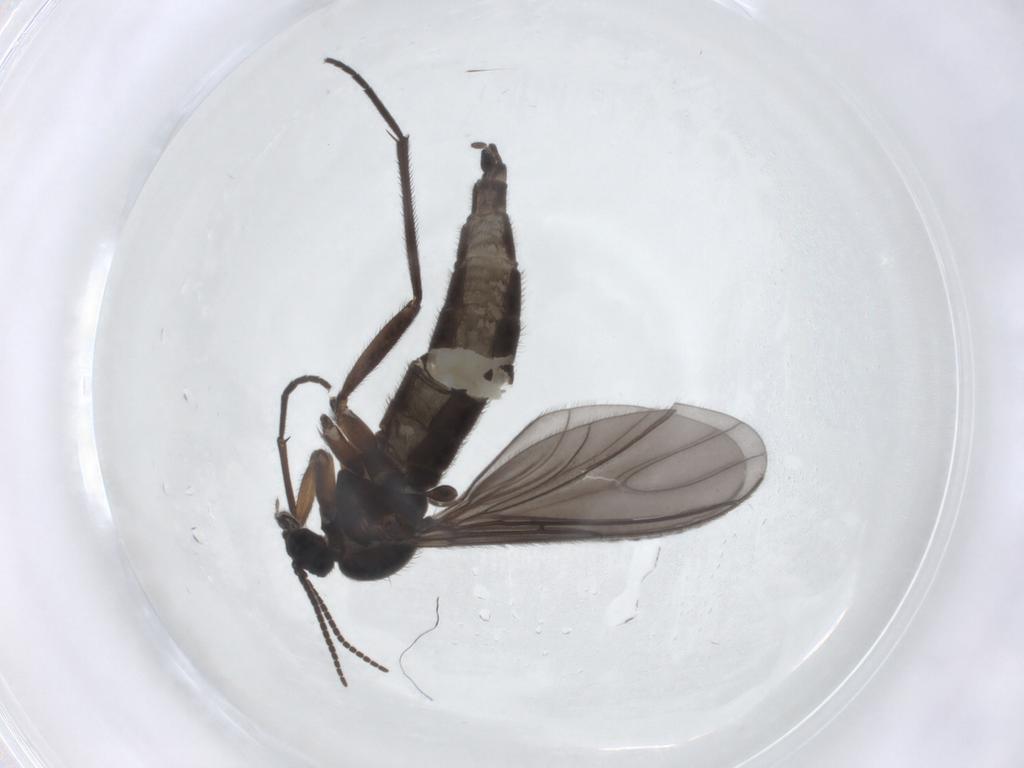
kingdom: Animalia
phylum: Arthropoda
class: Insecta
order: Diptera
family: Sciaridae
